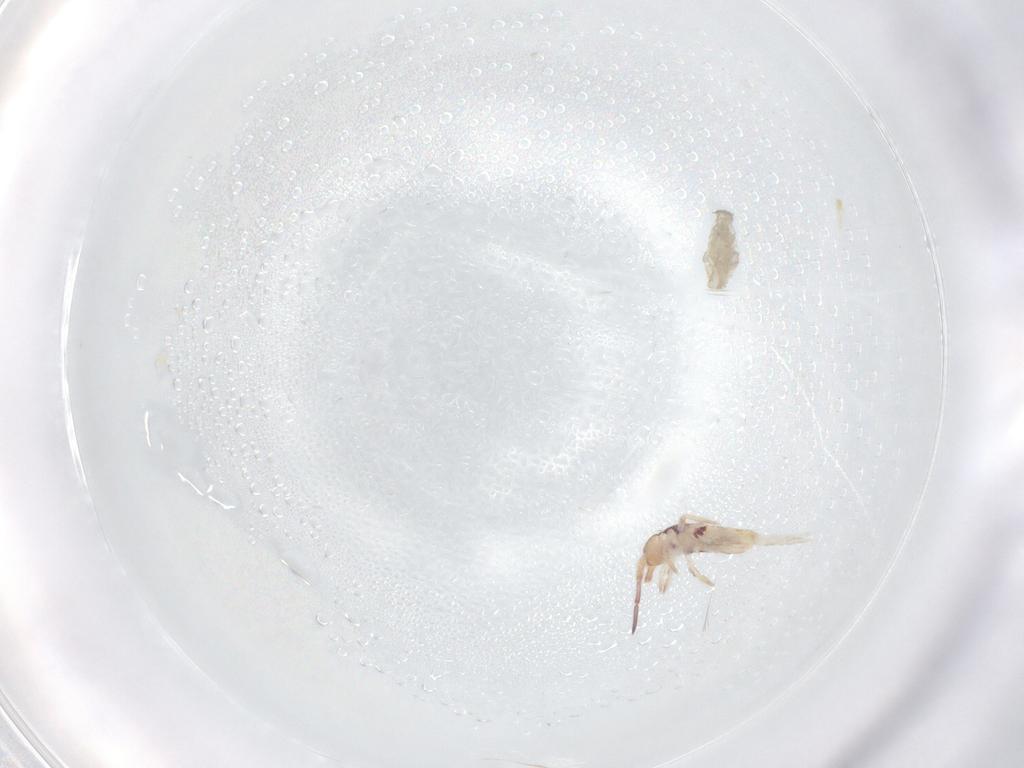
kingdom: Animalia
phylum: Arthropoda
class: Collembola
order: Entomobryomorpha
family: Entomobryidae
